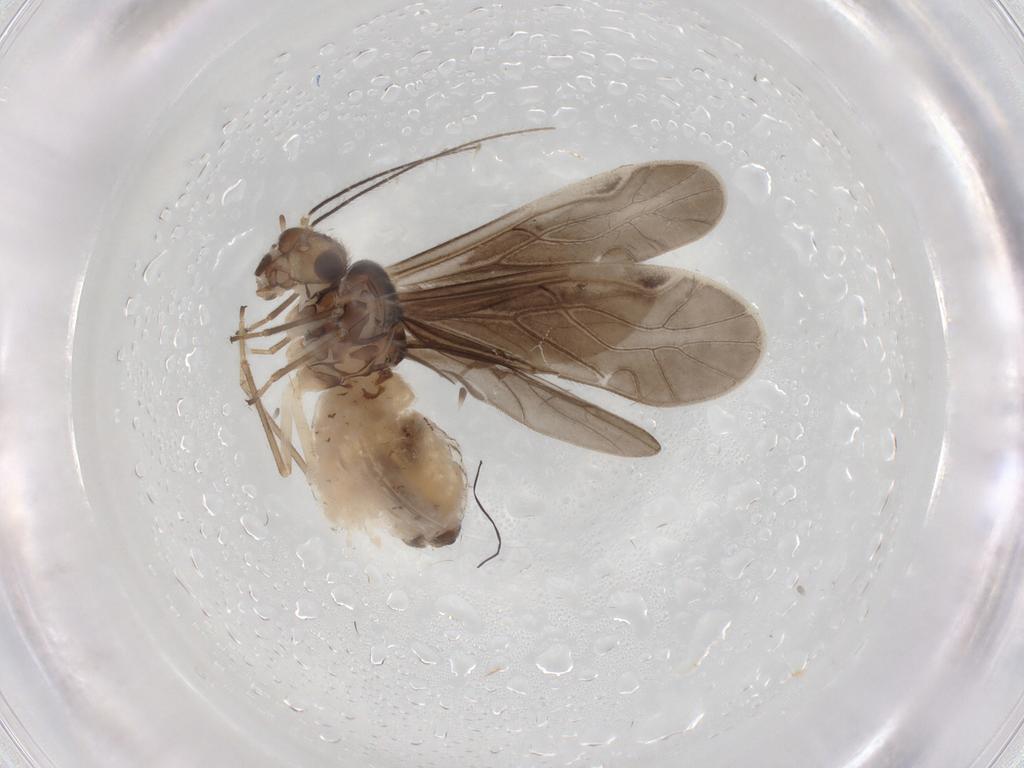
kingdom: Animalia
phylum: Arthropoda
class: Insecta
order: Psocodea
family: Caeciliusidae
